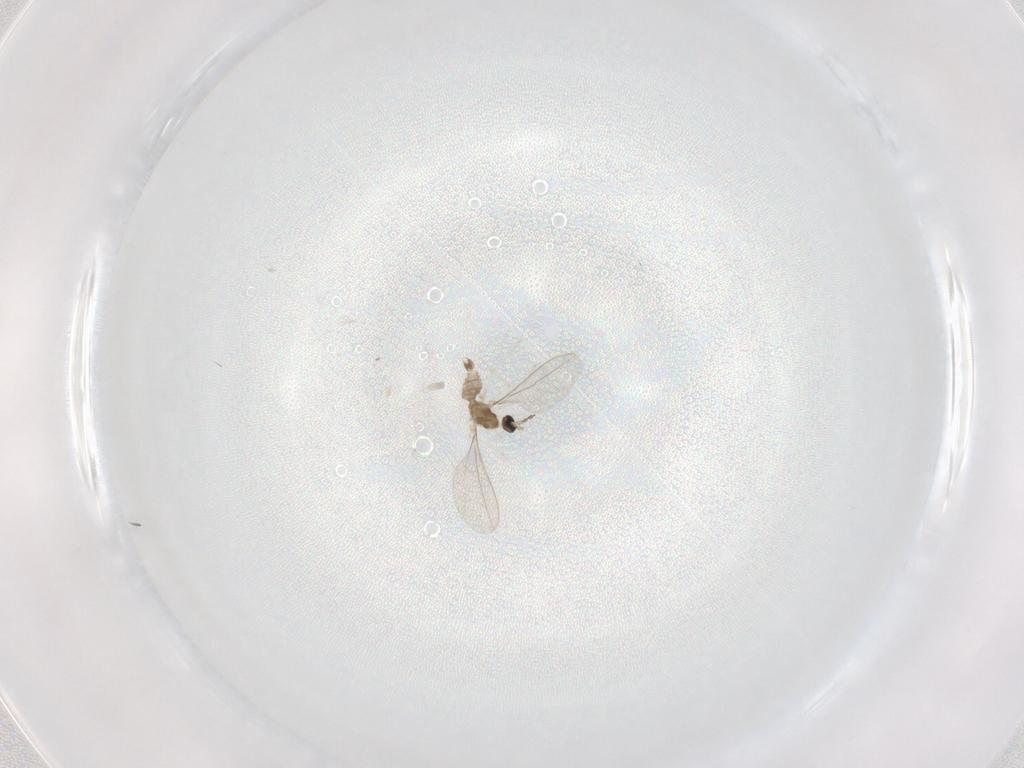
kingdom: Animalia
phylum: Arthropoda
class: Insecta
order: Diptera
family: Cecidomyiidae
